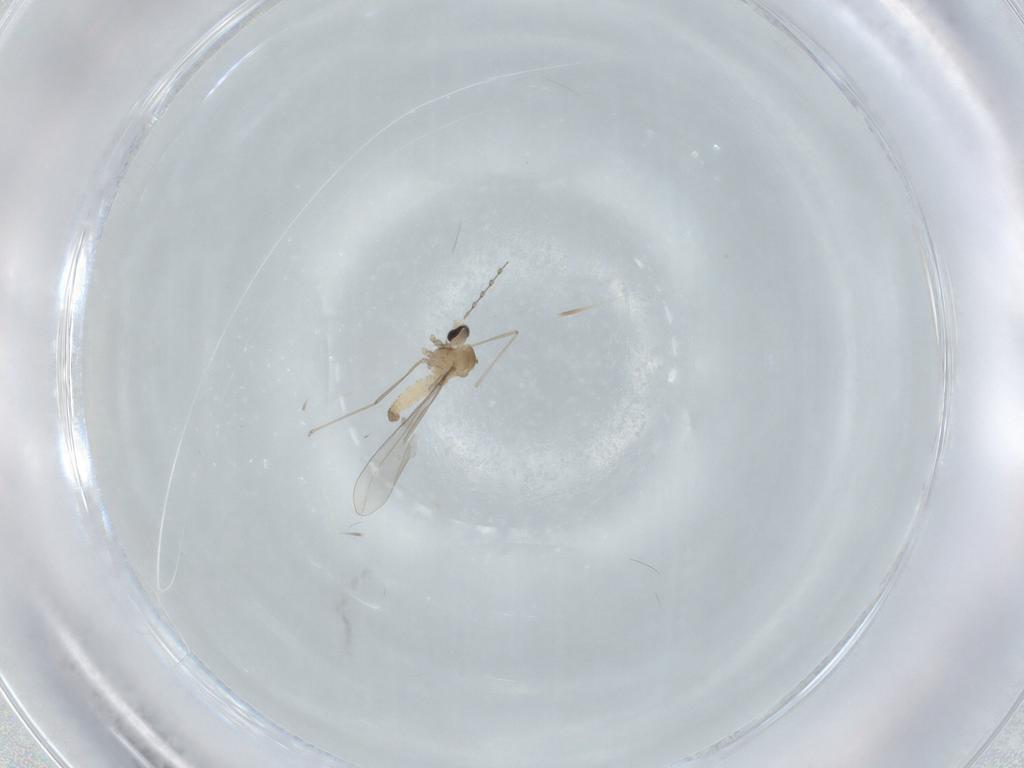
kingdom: Animalia
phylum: Arthropoda
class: Insecta
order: Diptera
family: Cecidomyiidae
